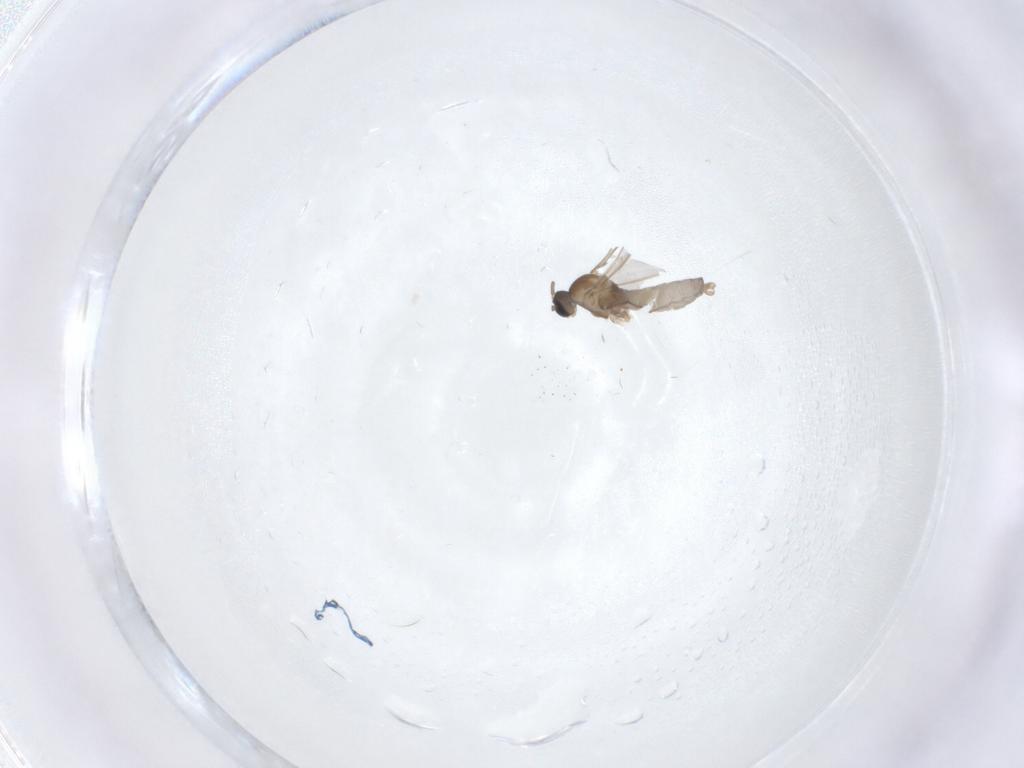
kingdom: Animalia
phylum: Arthropoda
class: Insecta
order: Diptera
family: Cecidomyiidae
